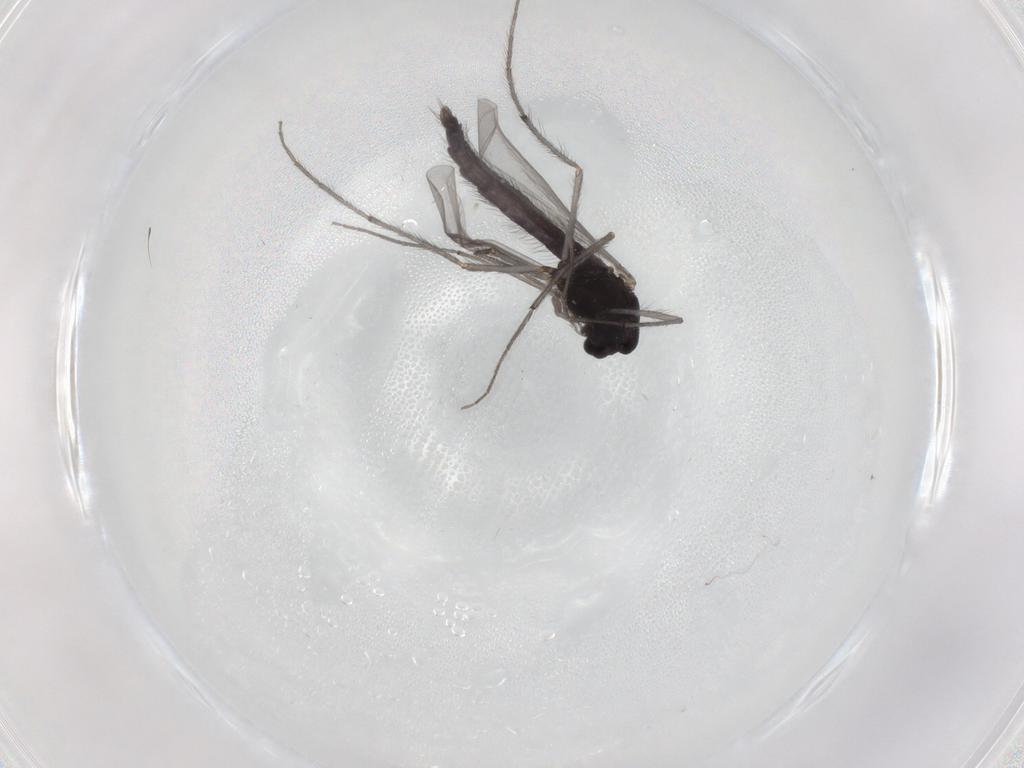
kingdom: Animalia
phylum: Arthropoda
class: Insecta
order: Diptera
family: Chironomidae
